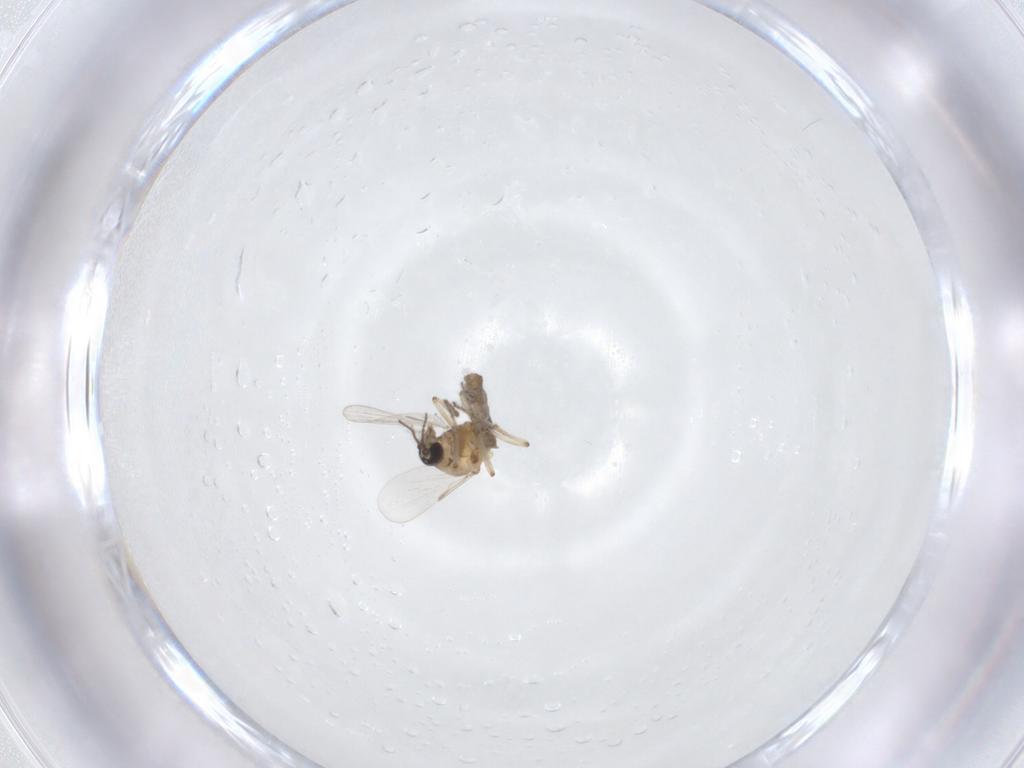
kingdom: Animalia
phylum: Arthropoda
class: Insecta
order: Diptera
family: Ceratopogonidae
